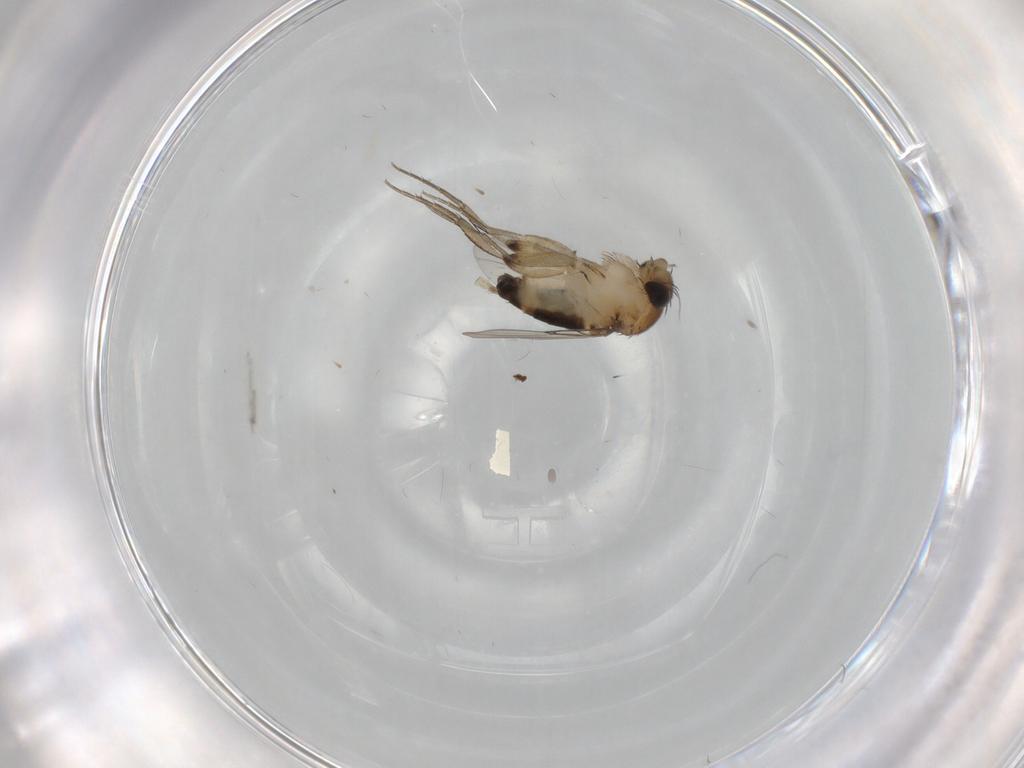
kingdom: Animalia
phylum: Arthropoda
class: Insecta
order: Diptera
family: Phoridae
